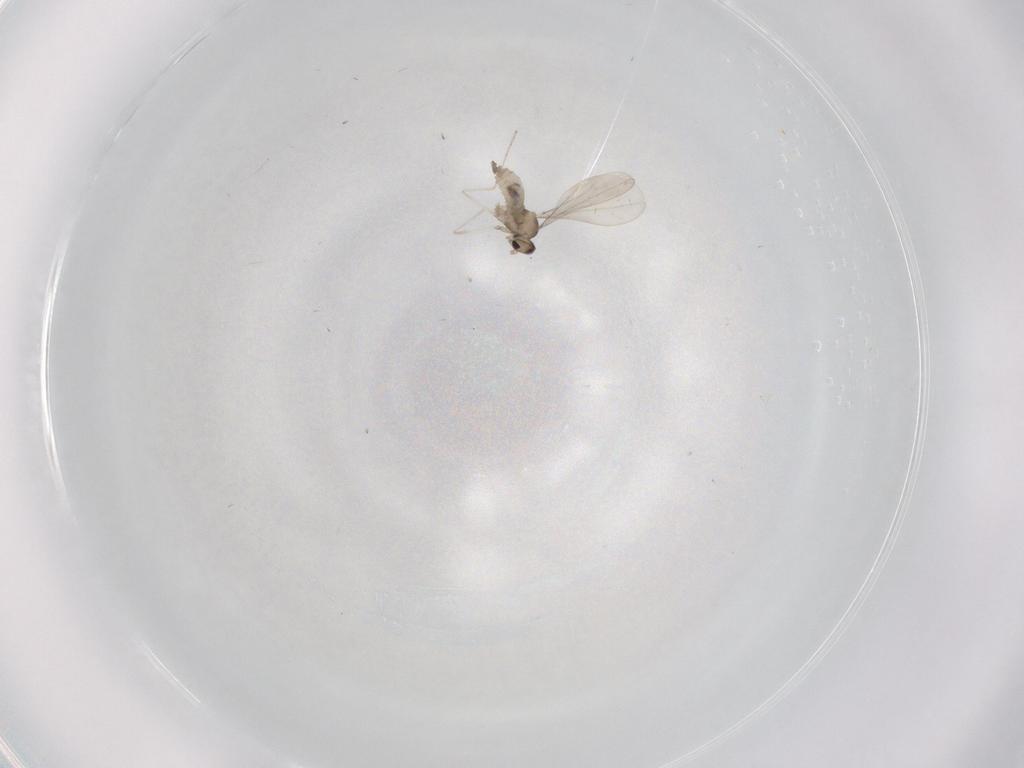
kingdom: Animalia
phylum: Arthropoda
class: Insecta
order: Diptera
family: Cecidomyiidae
